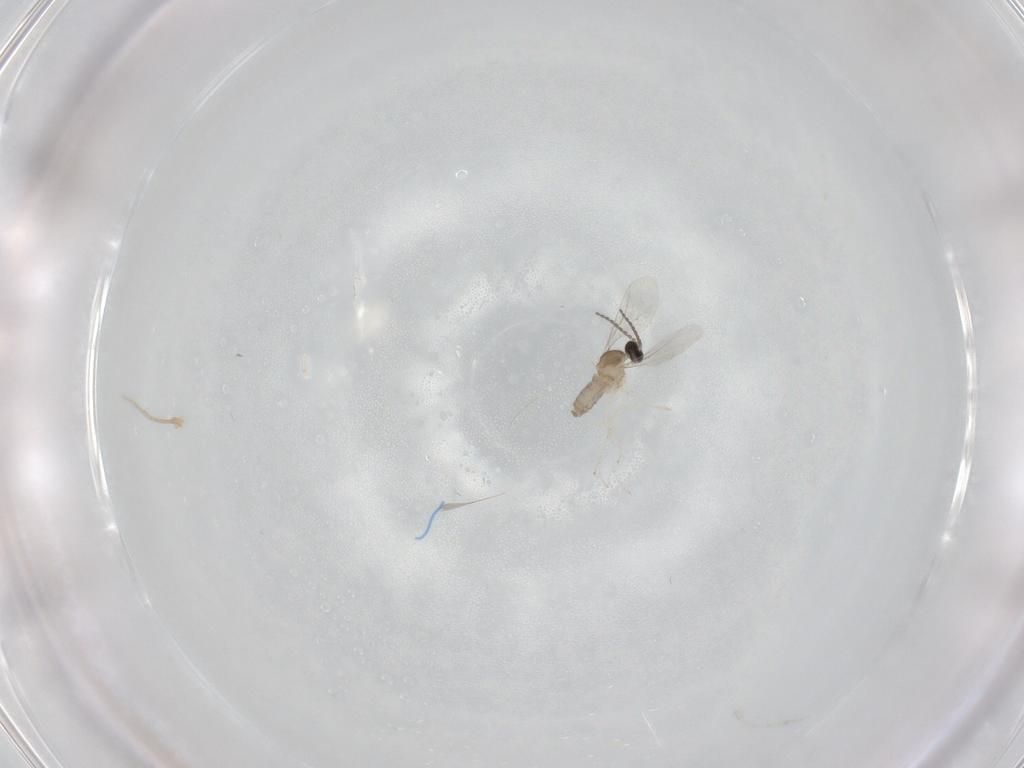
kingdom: Animalia
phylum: Arthropoda
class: Insecta
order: Diptera
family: Cecidomyiidae
